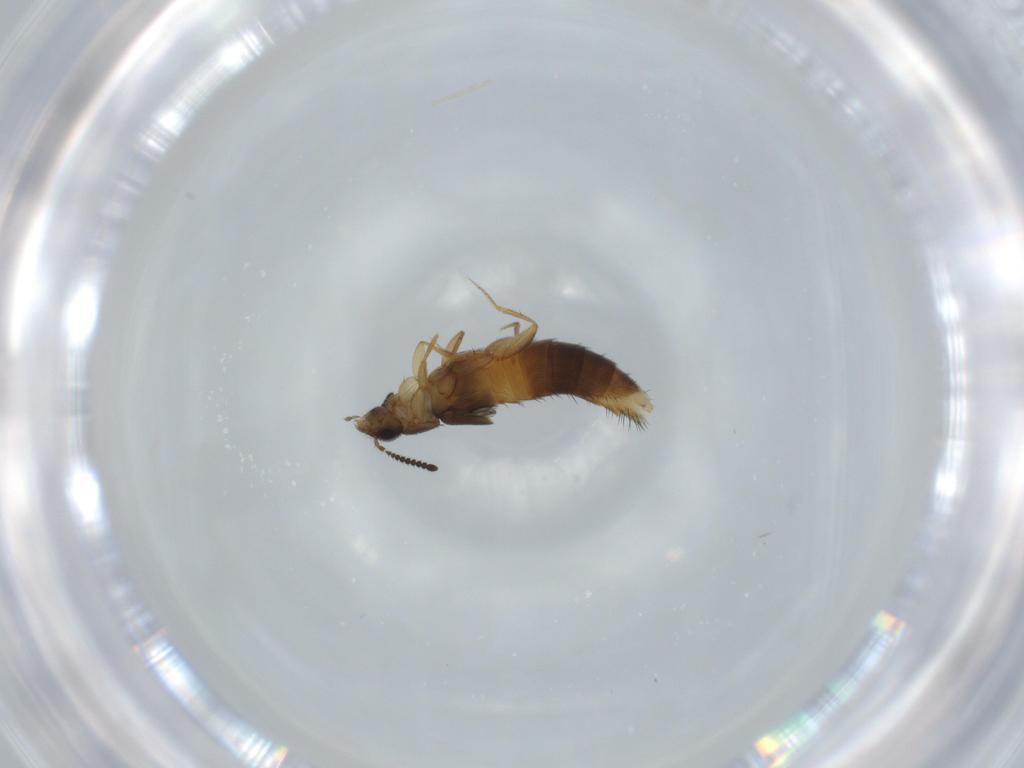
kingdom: Animalia
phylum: Arthropoda
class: Insecta
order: Coleoptera
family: Staphylinidae
